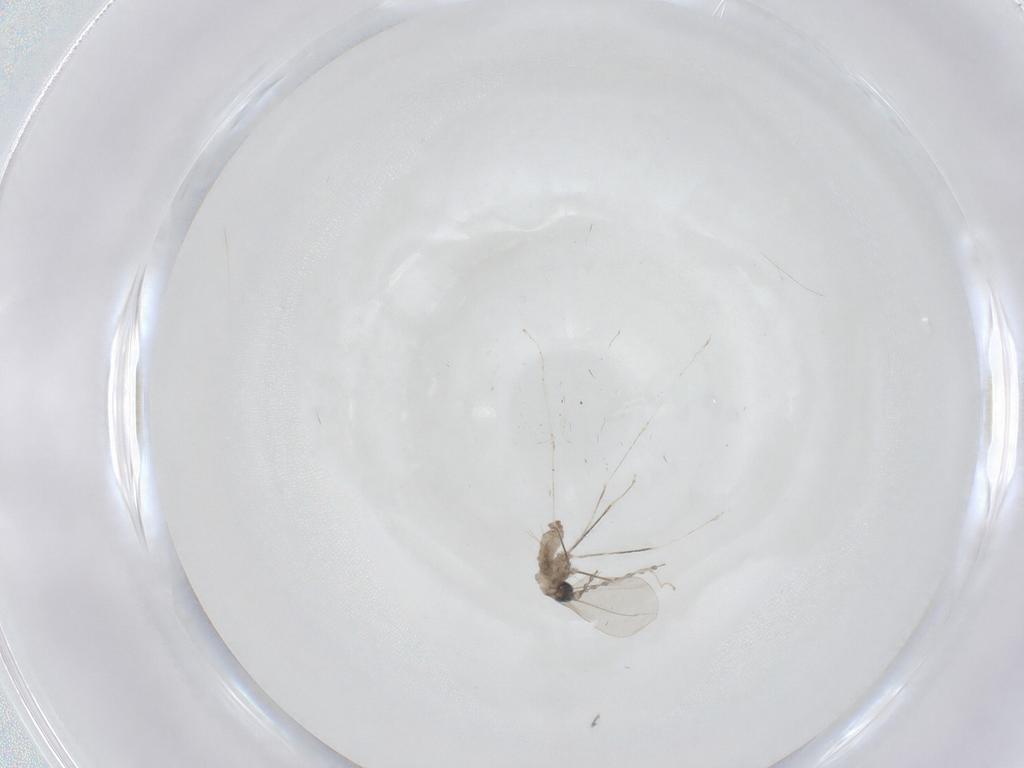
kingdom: Animalia
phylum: Arthropoda
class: Insecta
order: Diptera
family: Cecidomyiidae
